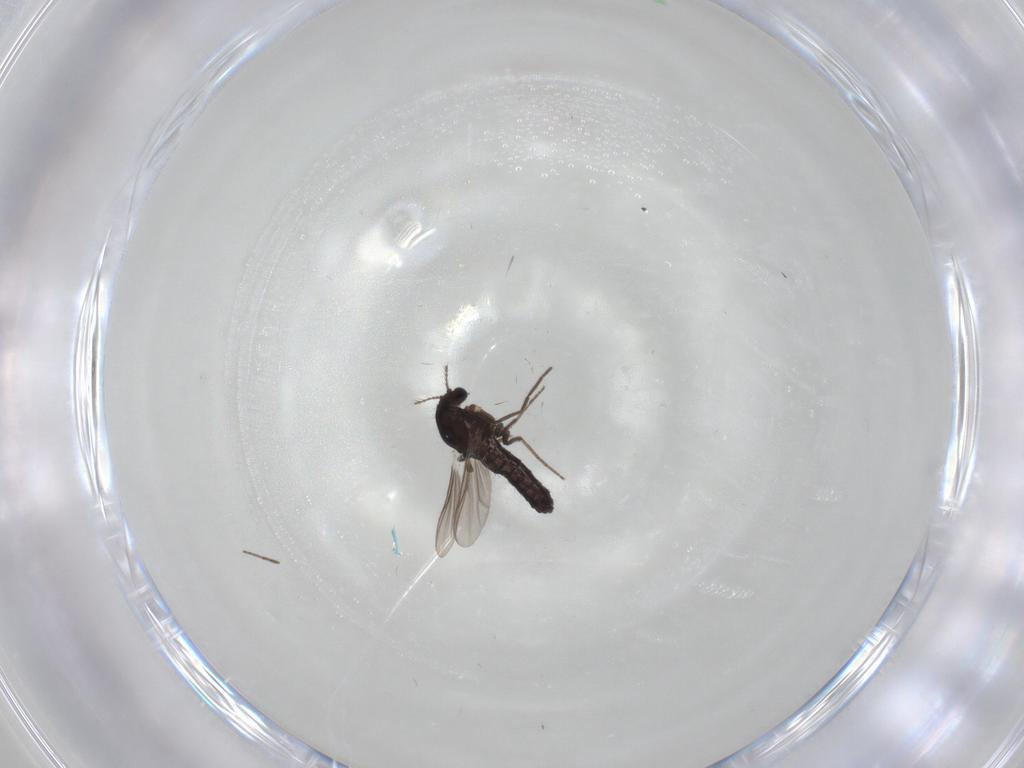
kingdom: Animalia
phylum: Arthropoda
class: Insecta
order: Diptera
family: Chironomidae
